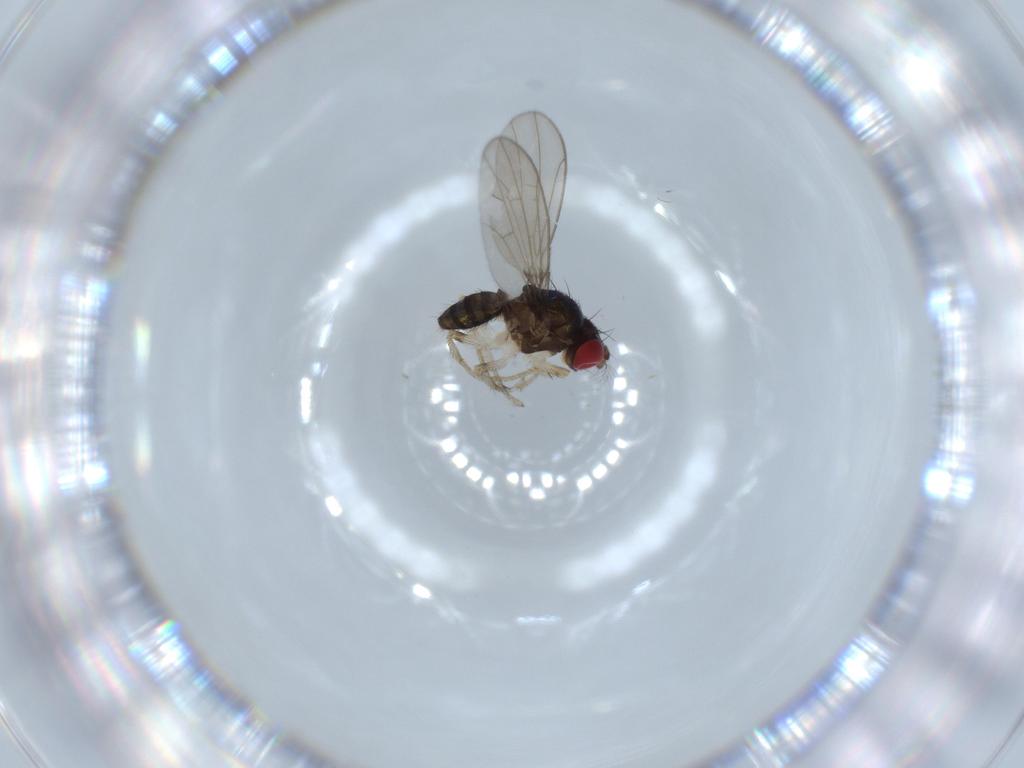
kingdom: Animalia
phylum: Arthropoda
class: Insecta
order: Diptera
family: Drosophilidae
